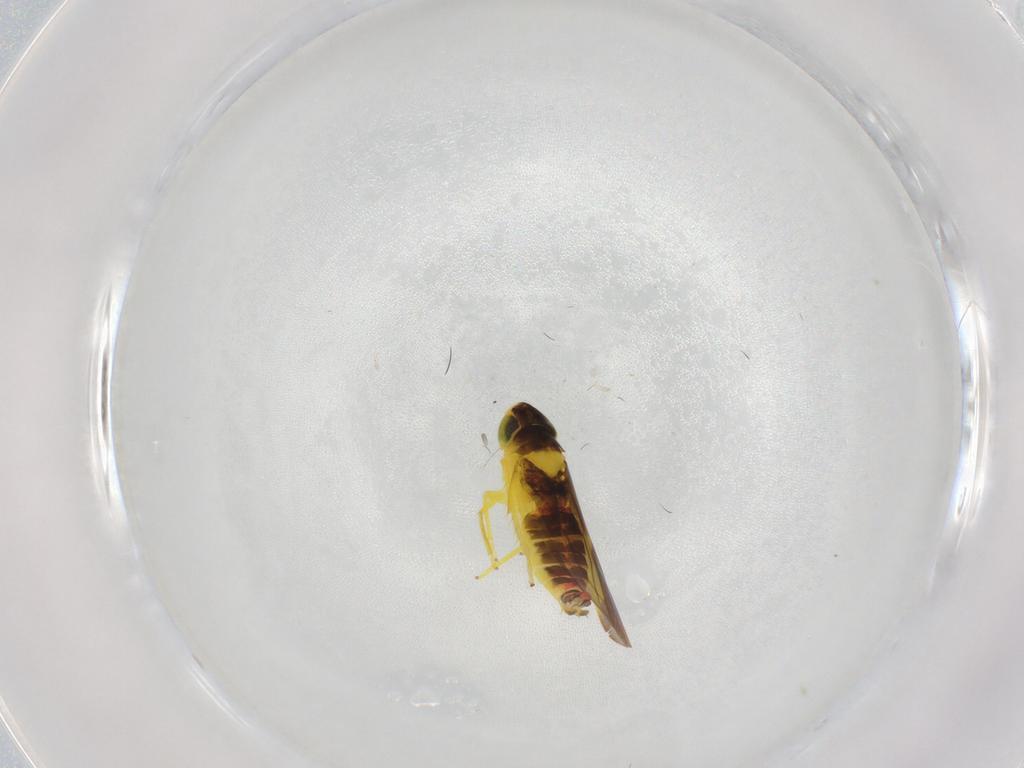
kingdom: Animalia
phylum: Arthropoda
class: Insecta
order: Hemiptera
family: Cicadellidae
